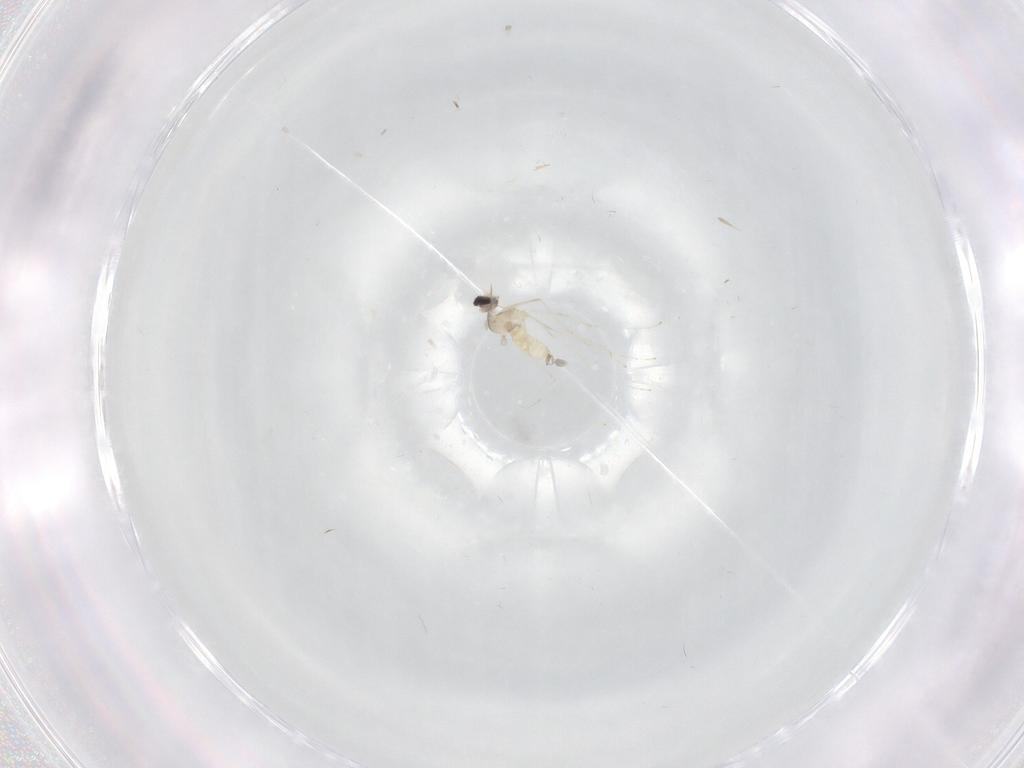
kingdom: Animalia
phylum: Arthropoda
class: Insecta
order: Diptera
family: Chironomidae
